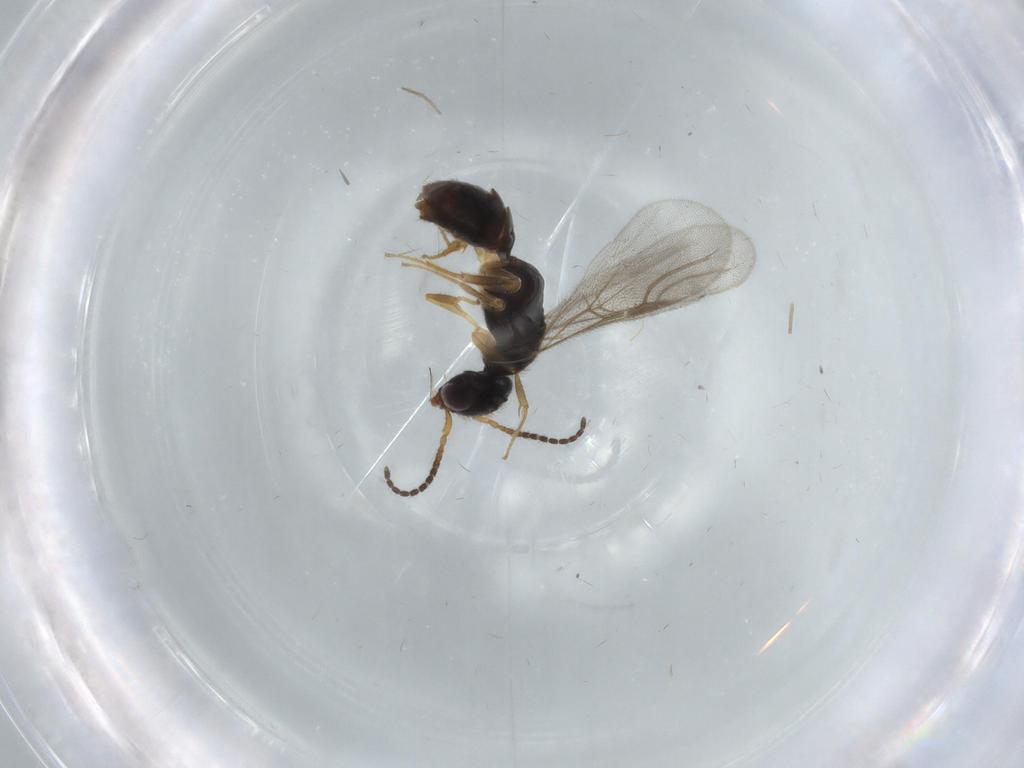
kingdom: Animalia
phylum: Arthropoda
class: Insecta
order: Hymenoptera
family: Bethylidae
